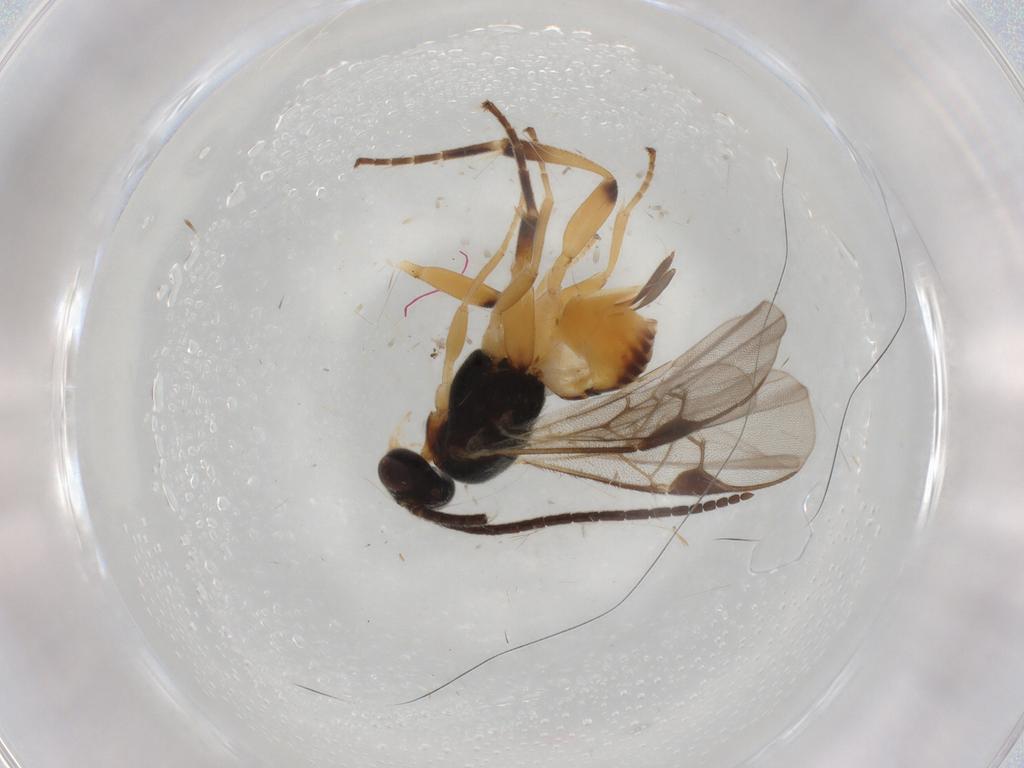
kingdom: Animalia
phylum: Arthropoda
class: Insecta
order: Hymenoptera
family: Braconidae
